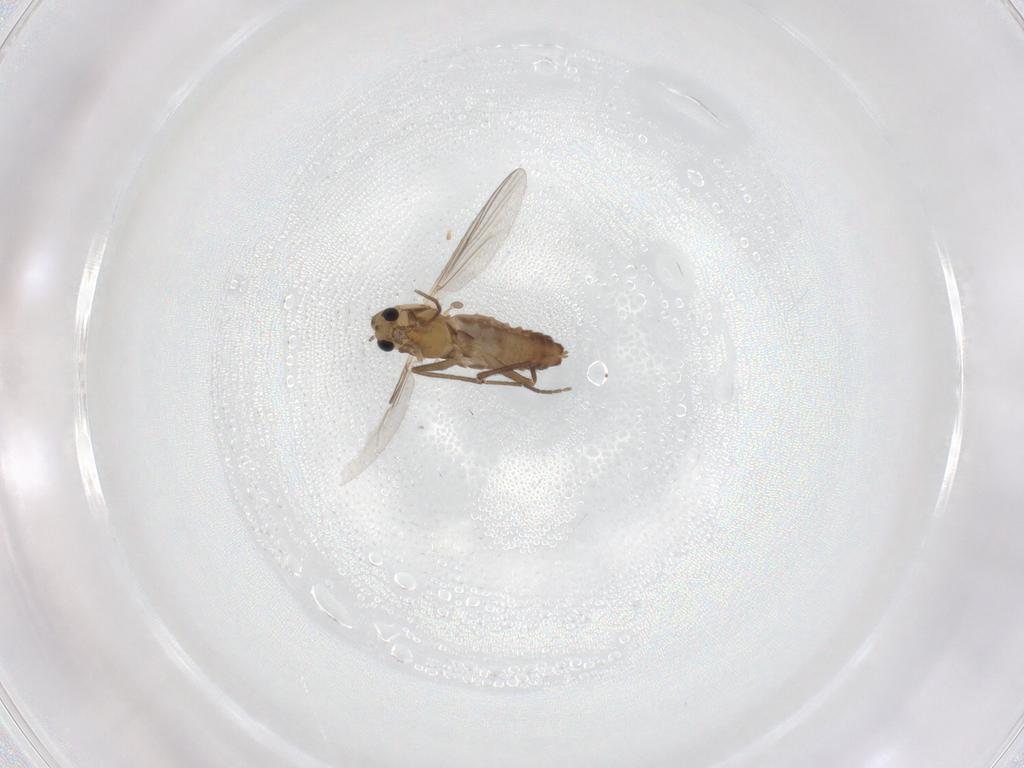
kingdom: Animalia
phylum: Arthropoda
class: Insecta
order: Diptera
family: Chironomidae
